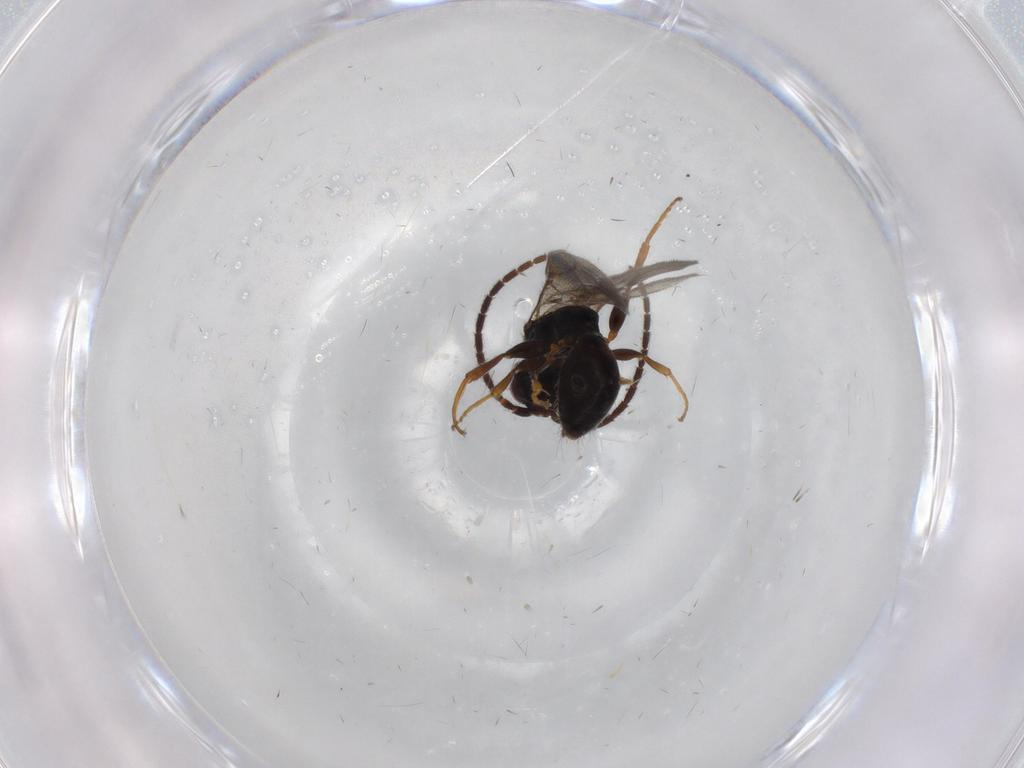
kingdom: Animalia
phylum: Arthropoda
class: Insecta
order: Hymenoptera
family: Bethylidae
